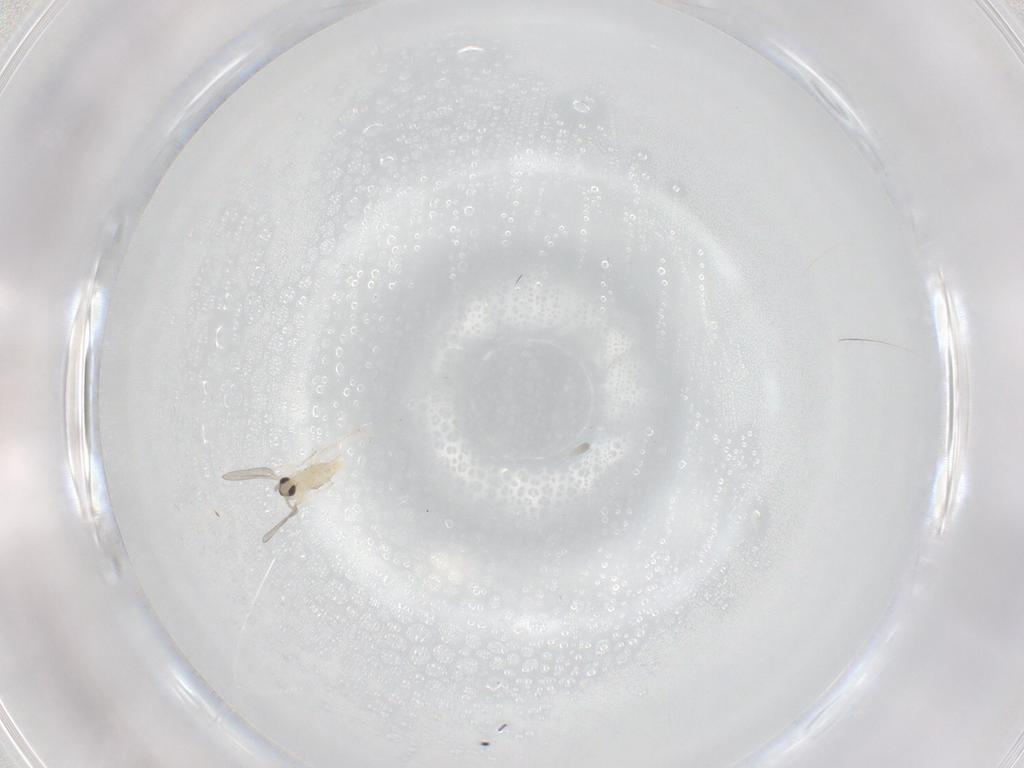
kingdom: Animalia
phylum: Arthropoda
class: Insecta
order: Diptera
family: Cecidomyiidae
